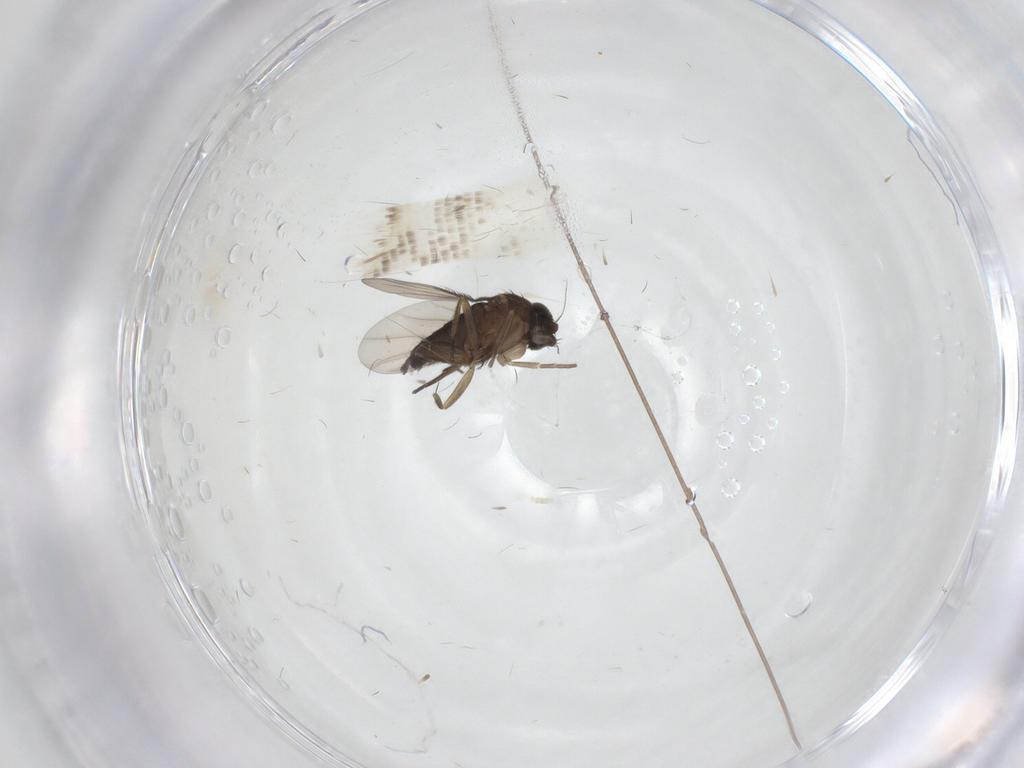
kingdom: Animalia
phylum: Arthropoda
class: Insecta
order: Diptera
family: Phoridae
